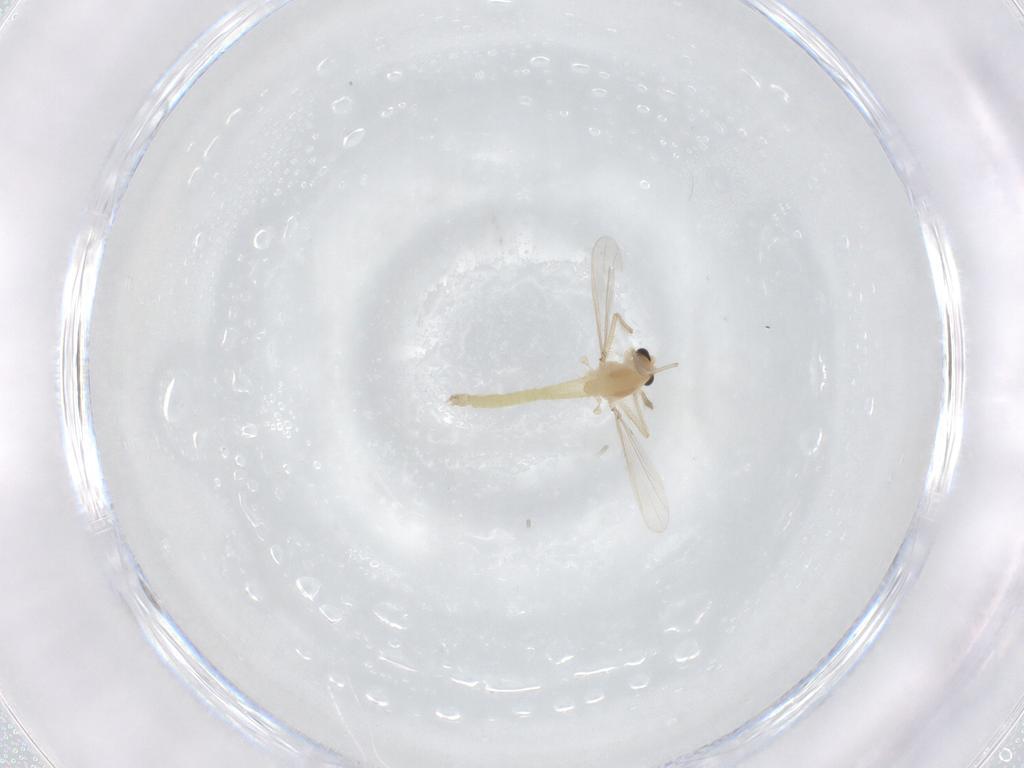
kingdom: Animalia
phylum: Arthropoda
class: Insecta
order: Diptera
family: Chironomidae
